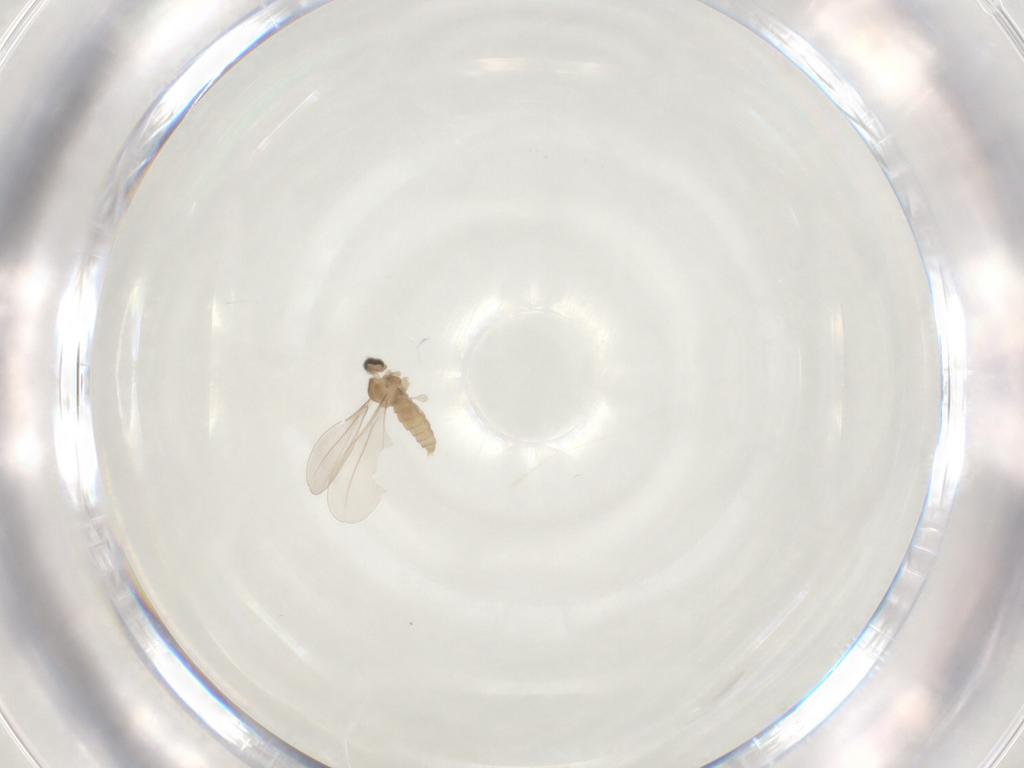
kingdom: Animalia
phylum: Arthropoda
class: Insecta
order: Diptera
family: Cecidomyiidae
